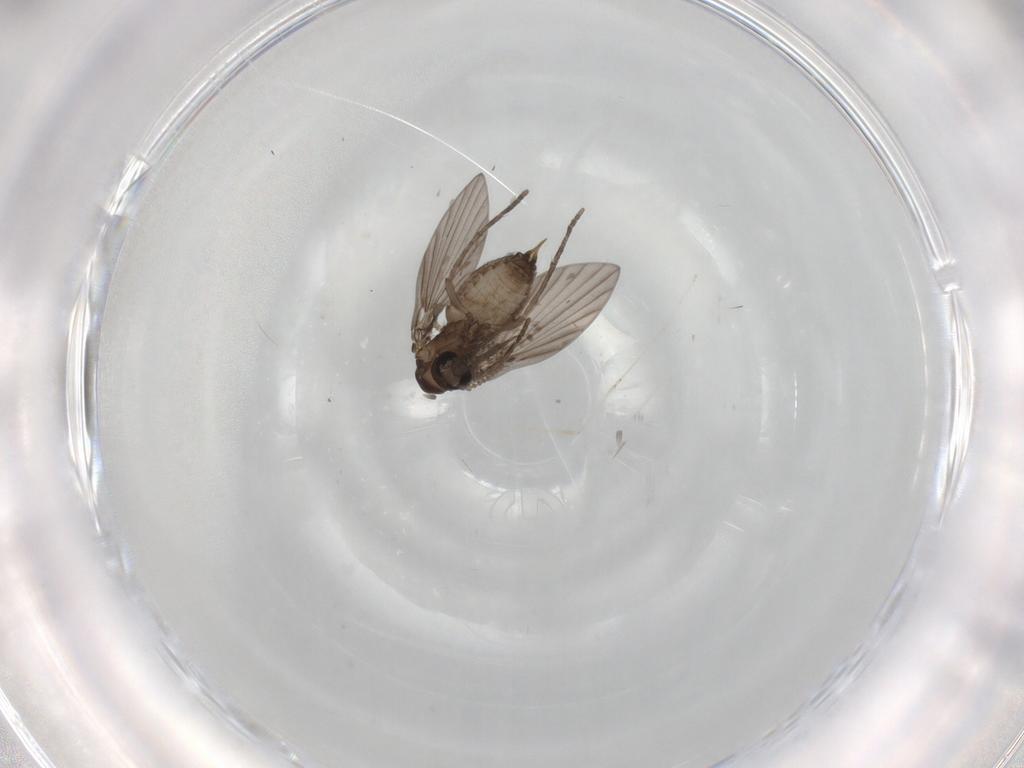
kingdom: Animalia
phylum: Arthropoda
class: Insecta
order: Diptera
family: Psychodidae
